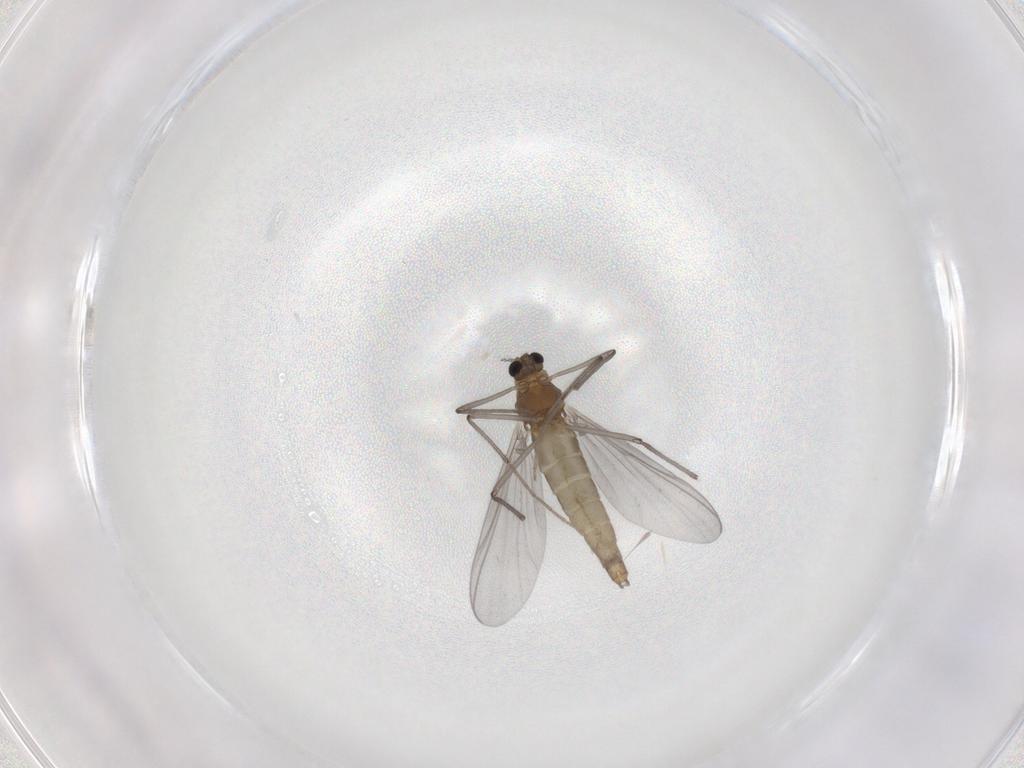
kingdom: Animalia
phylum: Arthropoda
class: Insecta
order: Diptera
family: Chironomidae
